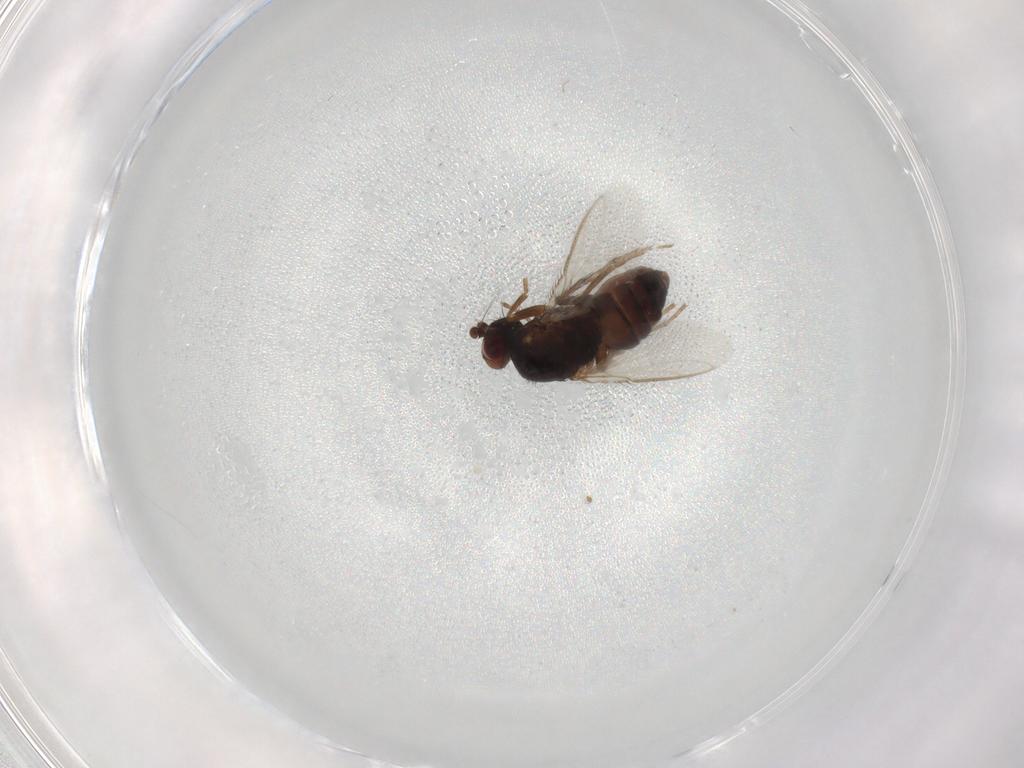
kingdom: Animalia
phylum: Arthropoda
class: Insecta
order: Diptera
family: Sphaeroceridae
